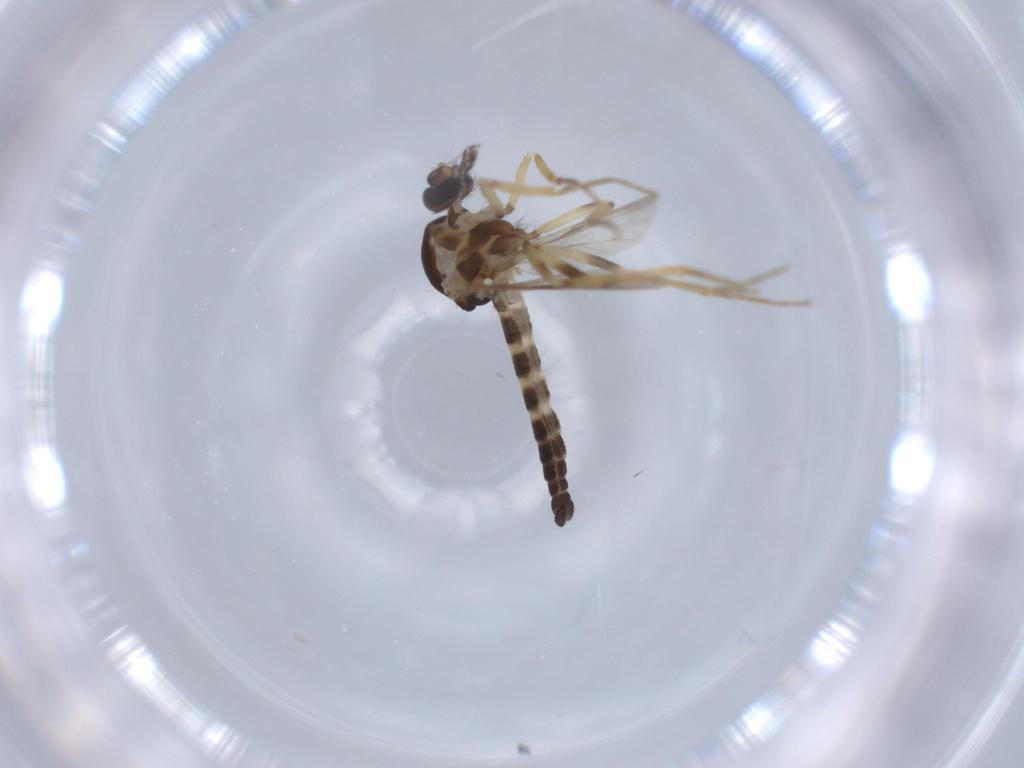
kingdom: Animalia
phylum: Arthropoda
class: Insecta
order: Diptera
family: Ceratopogonidae
